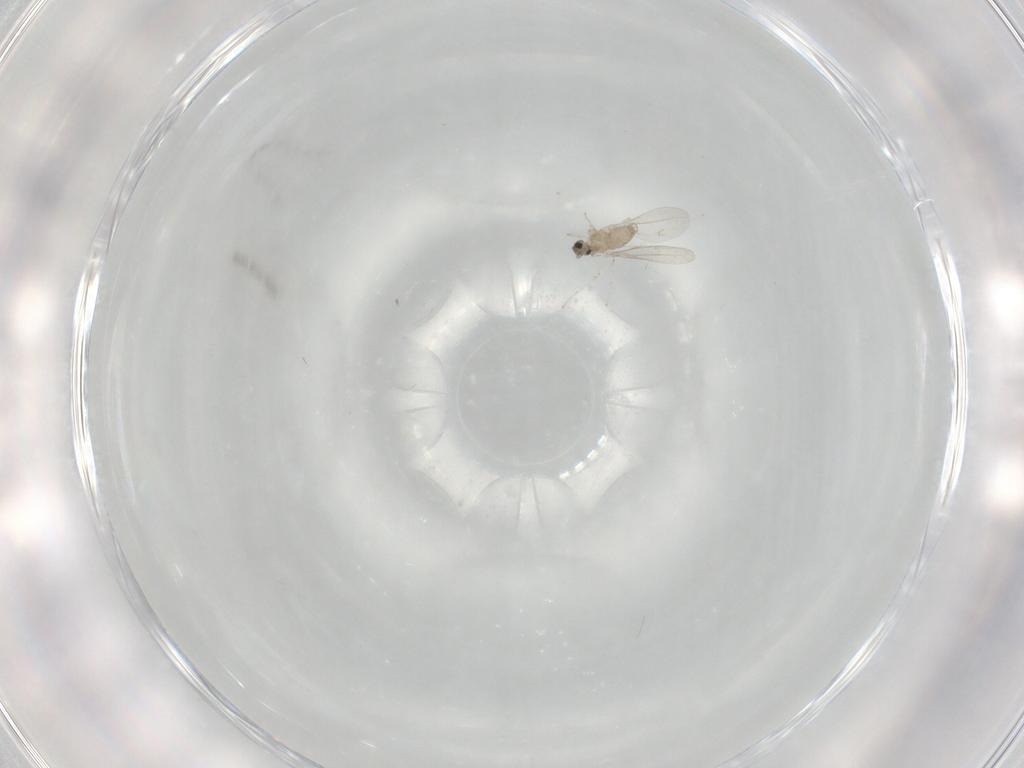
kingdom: Animalia
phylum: Arthropoda
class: Insecta
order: Diptera
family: Cecidomyiidae
